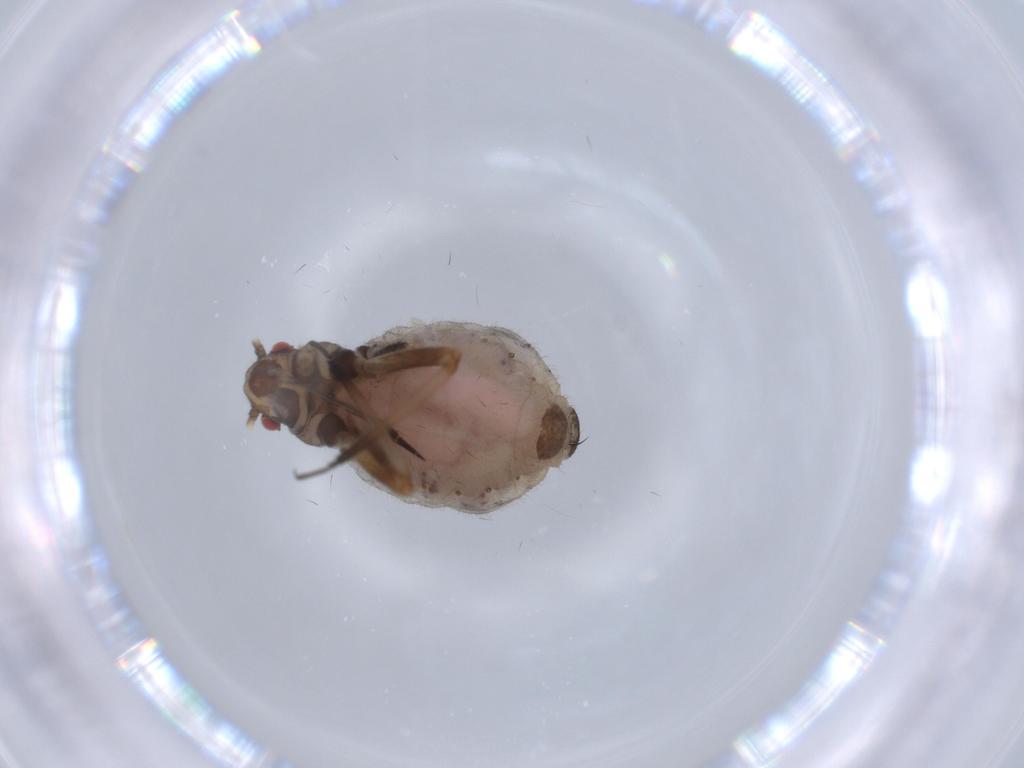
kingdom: Animalia
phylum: Arthropoda
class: Insecta
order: Hemiptera
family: Aphididae
